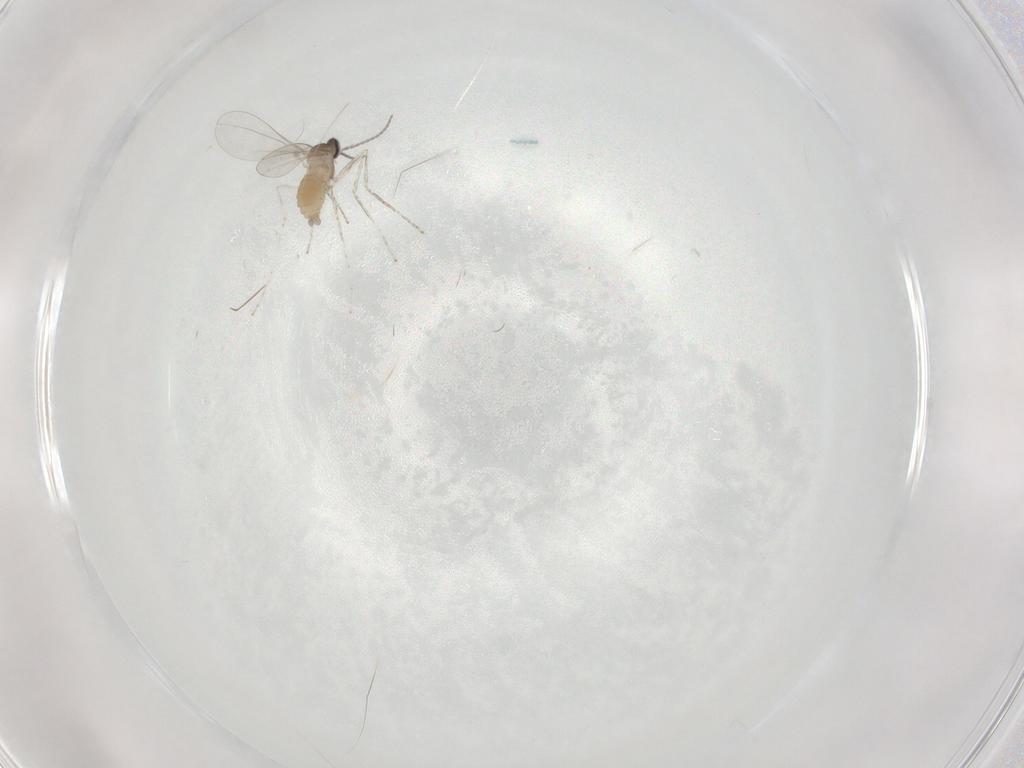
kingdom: Animalia
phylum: Arthropoda
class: Insecta
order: Diptera
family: Cecidomyiidae
